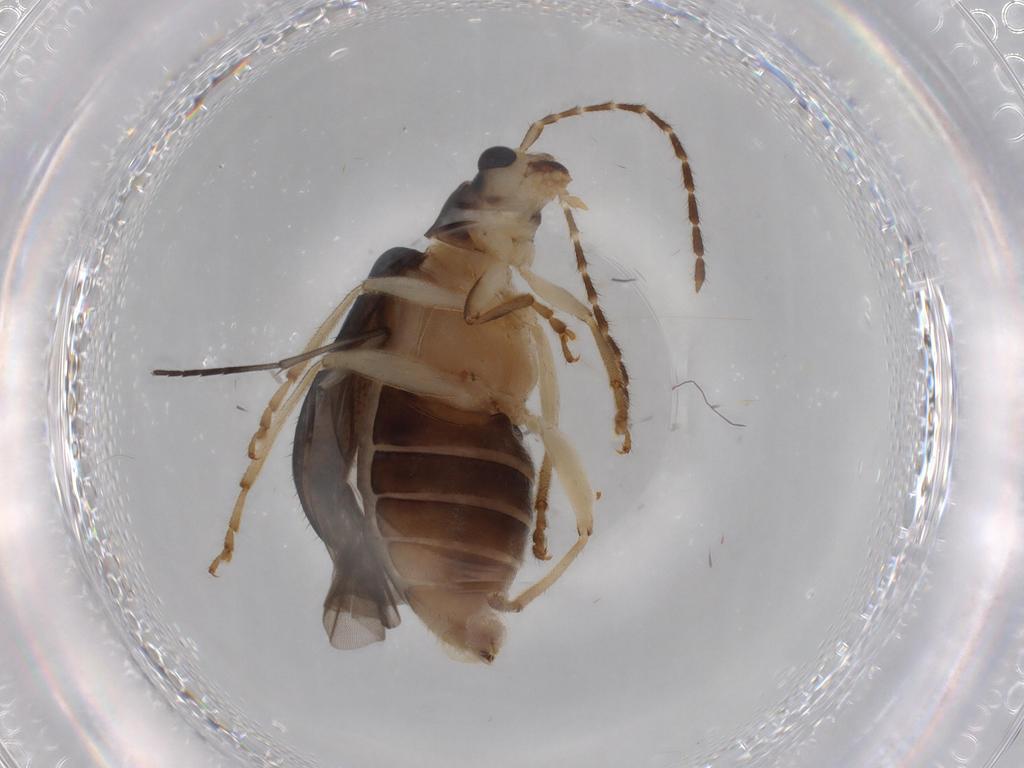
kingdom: Animalia
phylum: Arthropoda
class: Insecta
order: Coleoptera
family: Chrysomelidae
